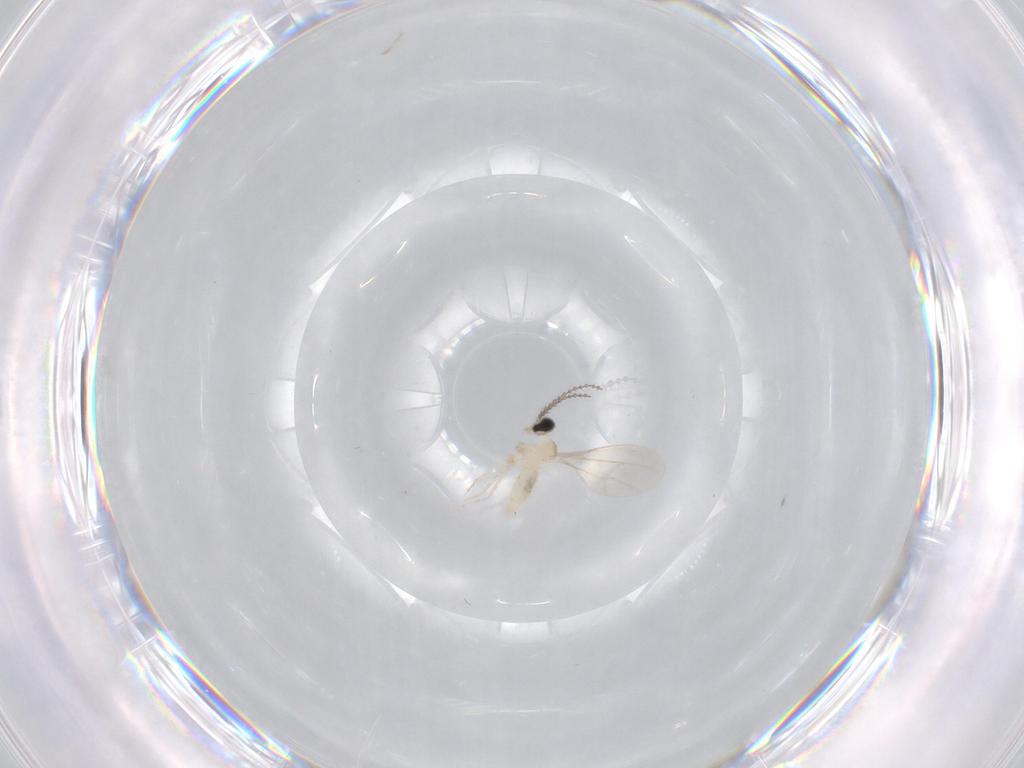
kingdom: Animalia
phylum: Arthropoda
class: Insecta
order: Diptera
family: Cecidomyiidae
